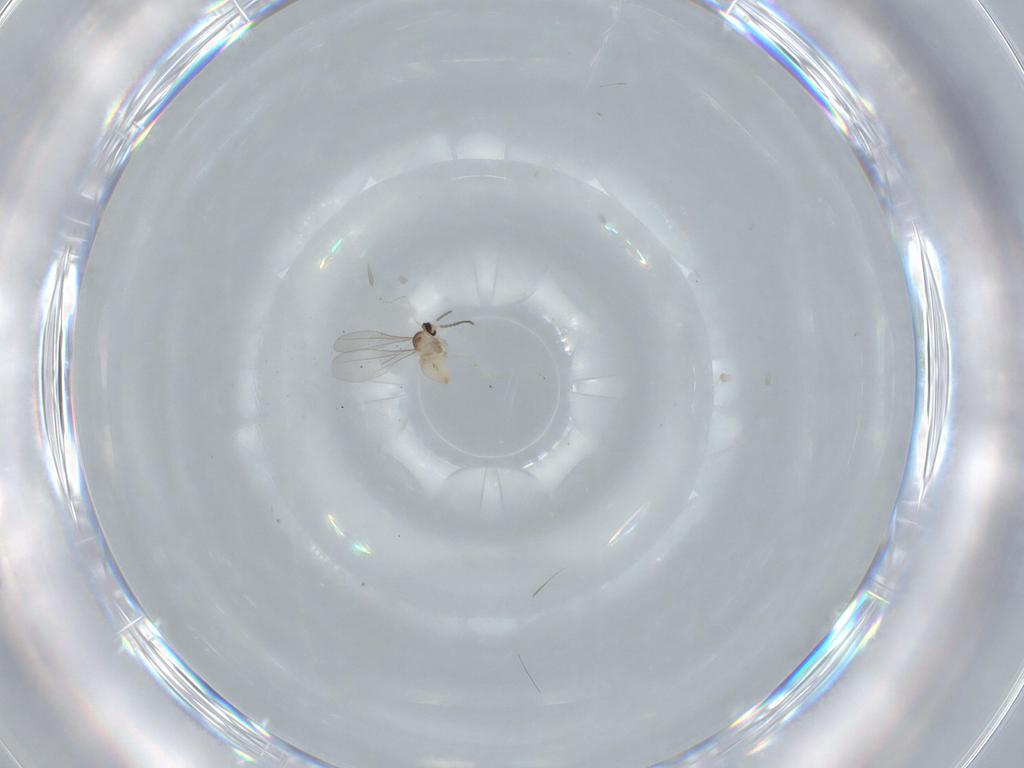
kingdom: Animalia
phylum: Arthropoda
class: Insecta
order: Diptera
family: Cecidomyiidae
